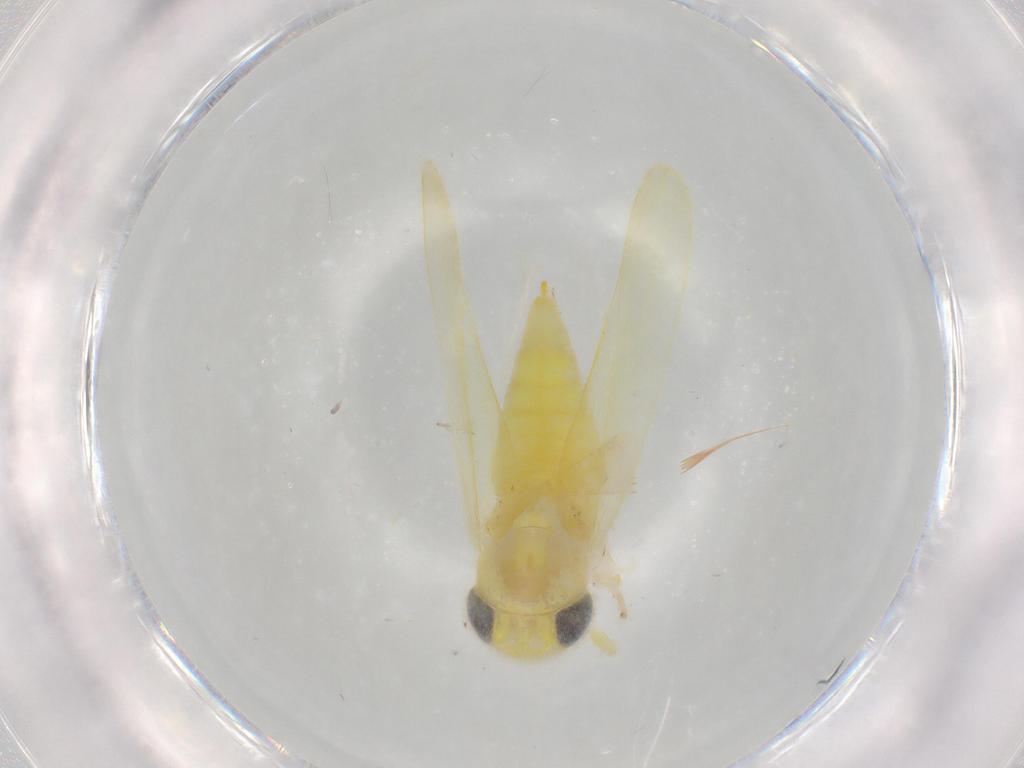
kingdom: Animalia
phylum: Arthropoda
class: Insecta
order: Hemiptera
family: Cicadellidae
